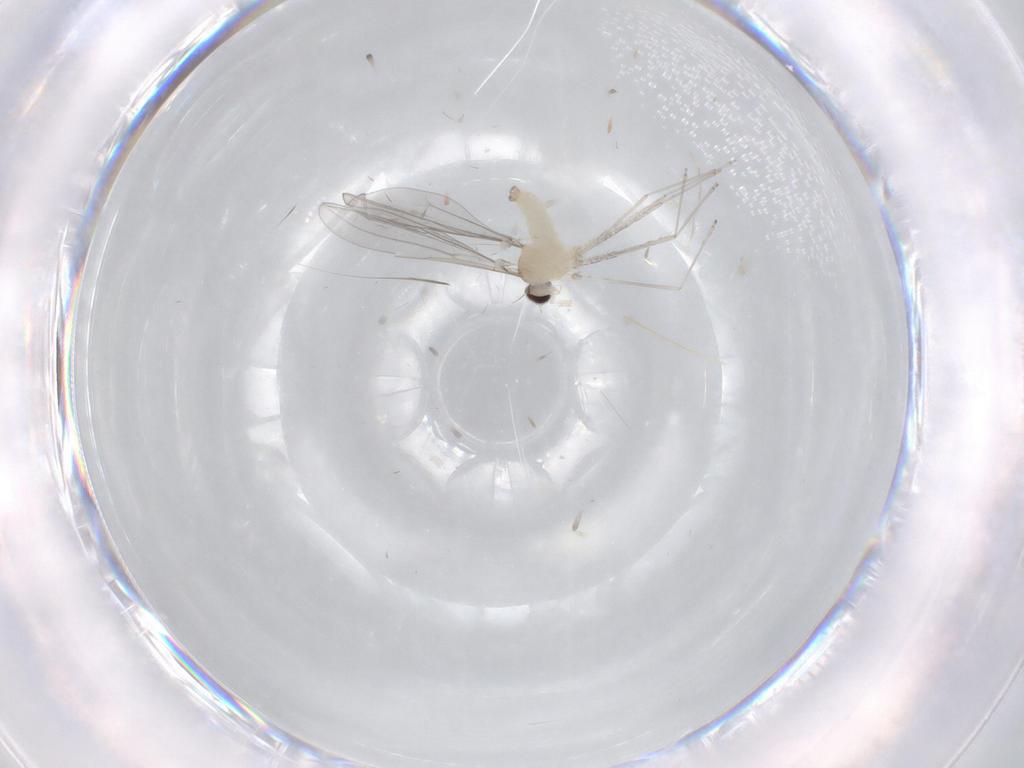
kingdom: Animalia
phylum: Arthropoda
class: Insecta
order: Diptera
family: Cecidomyiidae
